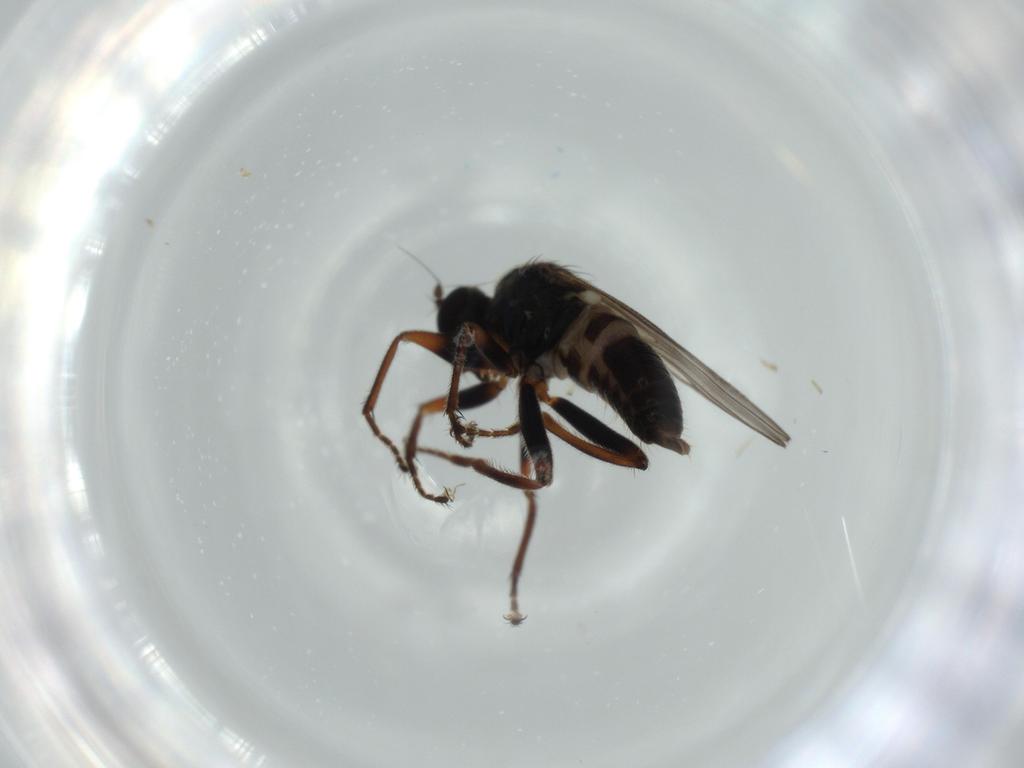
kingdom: Animalia
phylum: Arthropoda
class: Insecta
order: Diptera
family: Hybotidae
